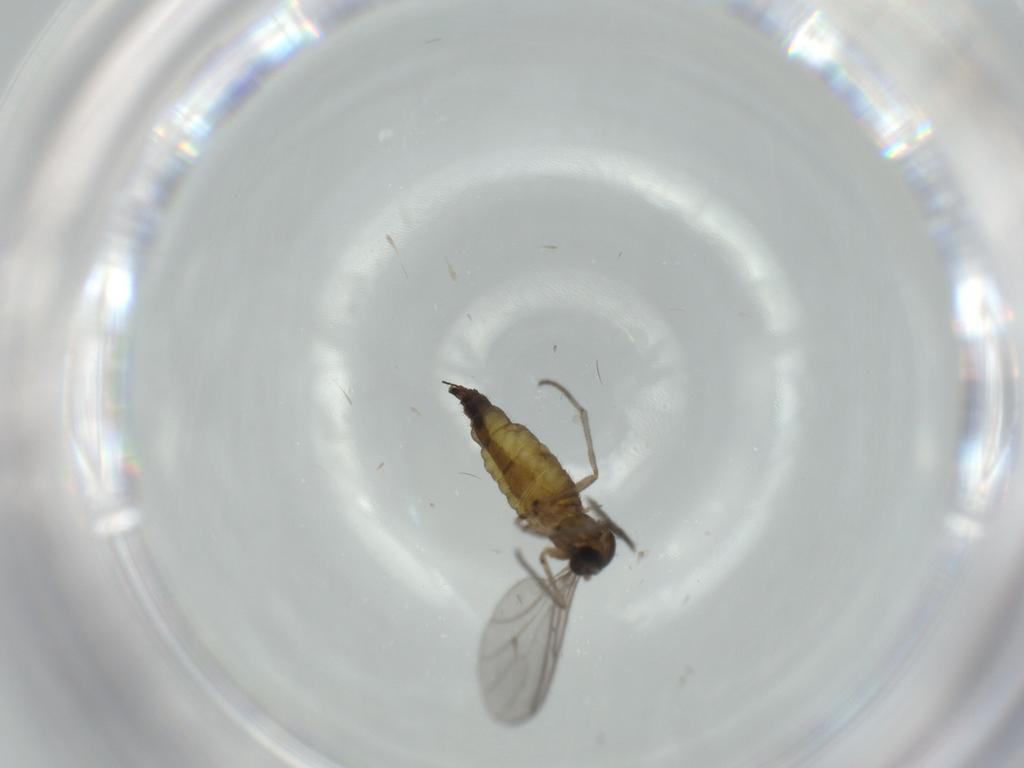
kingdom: Animalia
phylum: Arthropoda
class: Insecta
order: Diptera
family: Sciaridae
